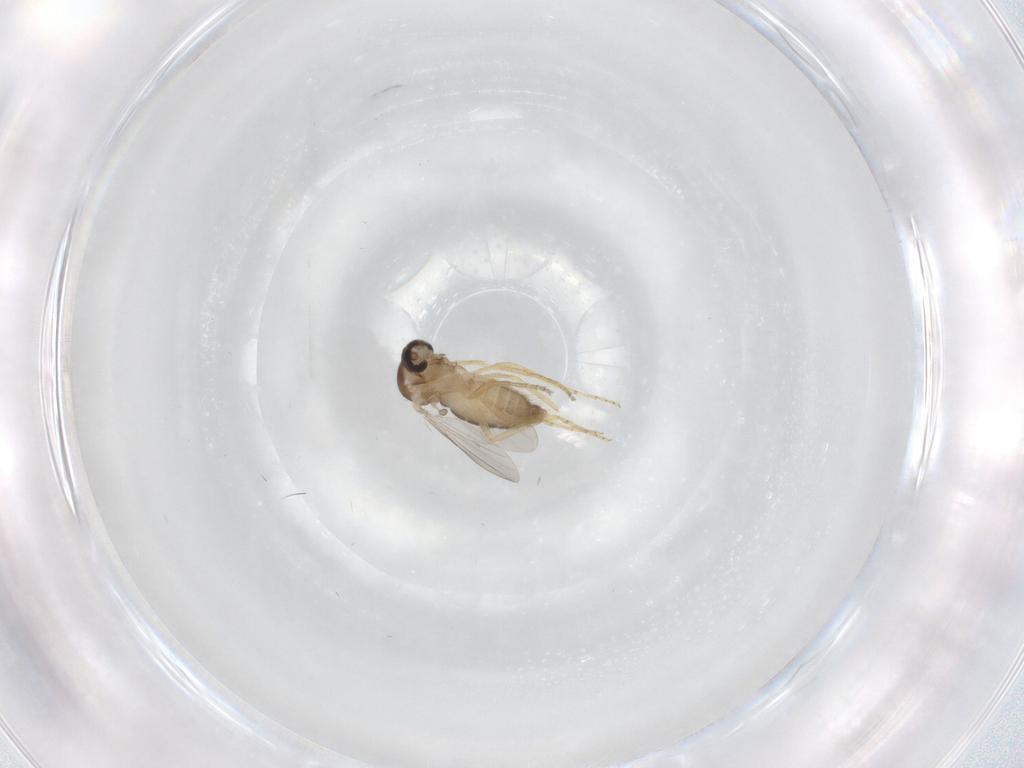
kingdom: Animalia
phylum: Arthropoda
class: Insecta
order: Diptera
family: Ceratopogonidae
